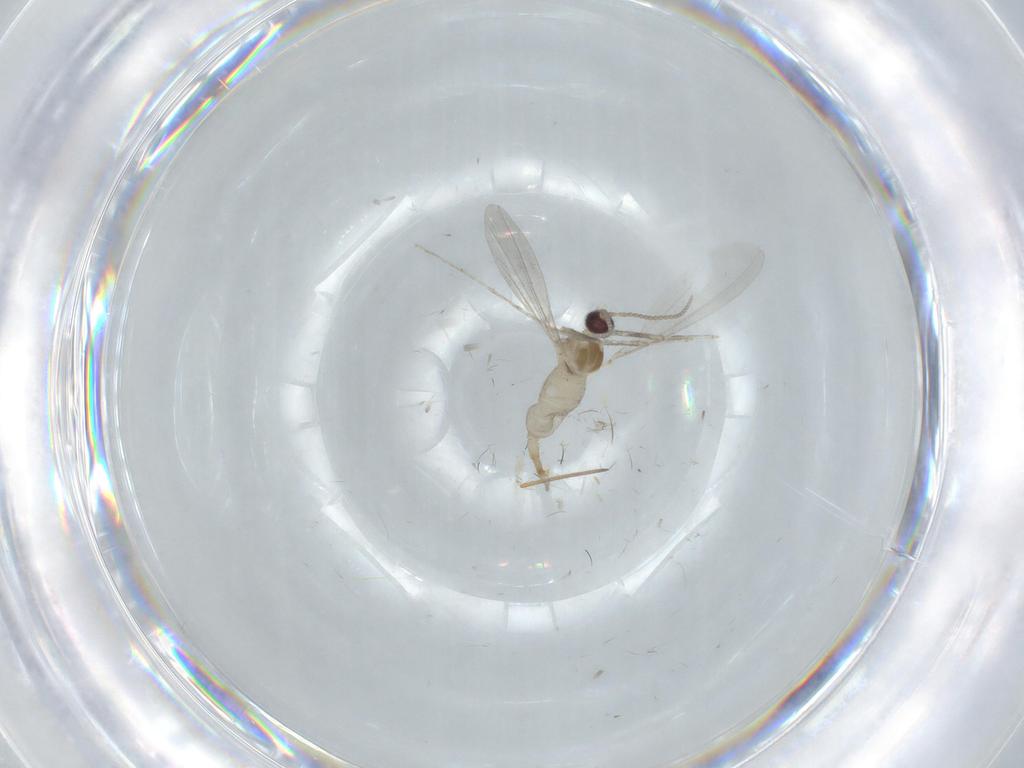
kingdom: Animalia
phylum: Arthropoda
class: Insecta
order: Diptera
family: Cecidomyiidae
